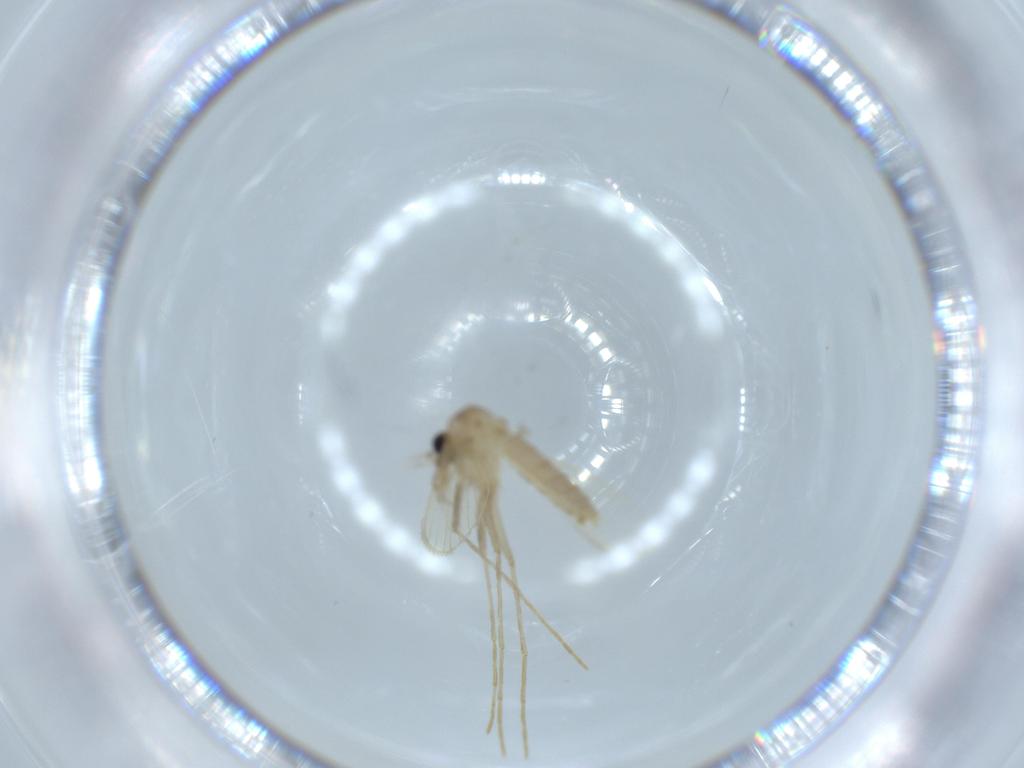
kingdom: Animalia
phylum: Arthropoda
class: Insecta
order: Diptera
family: Psychodidae
